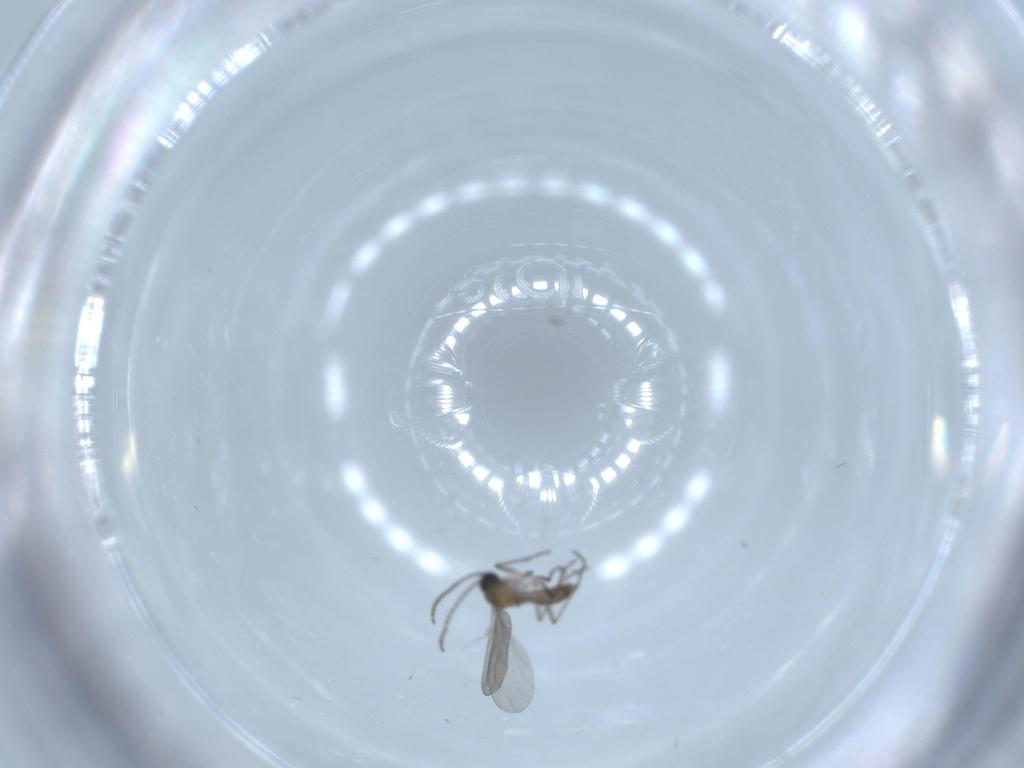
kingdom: Animalia
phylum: Arthropoda
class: Insecta
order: Diptera
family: Sciaridae
